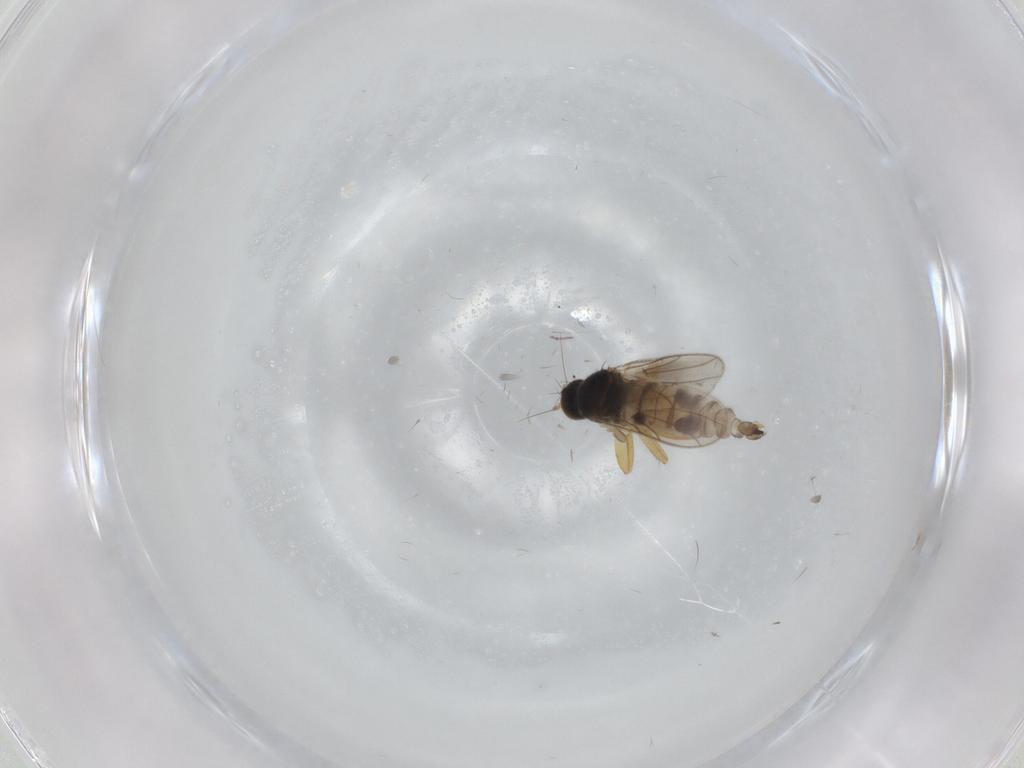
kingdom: Animalia
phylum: Arthropoda
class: Insecta
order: Diptera
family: Hybotidae
